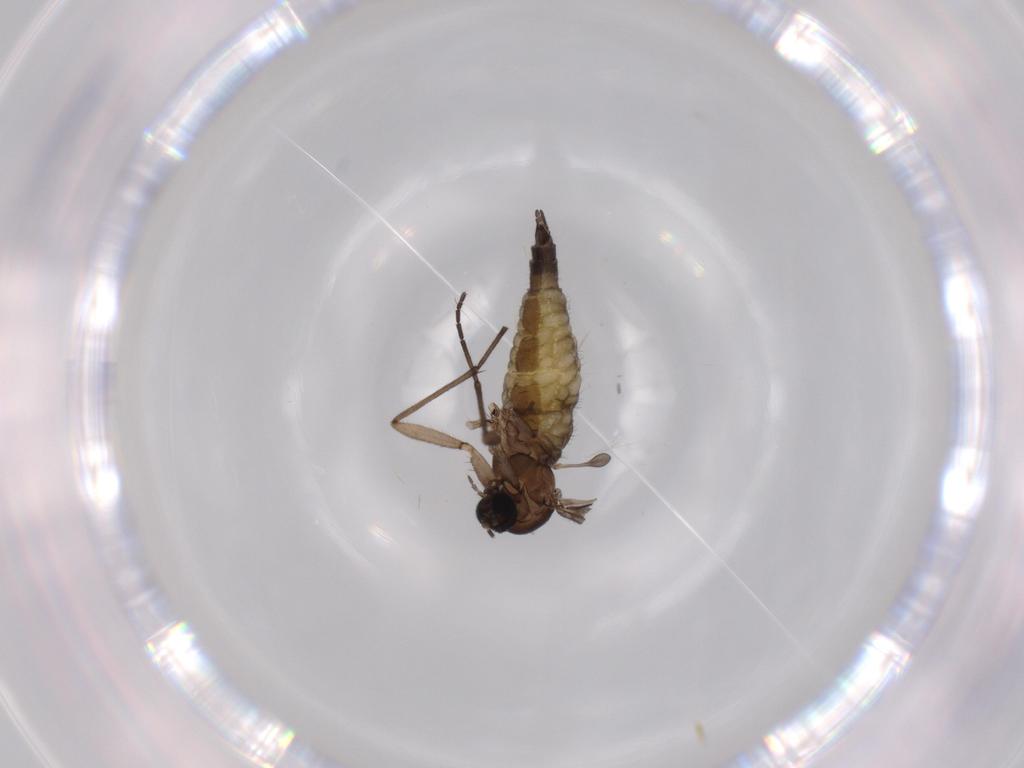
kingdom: Animalia
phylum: Arthropoda
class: Insecta
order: Diptera
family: Sciaridae
